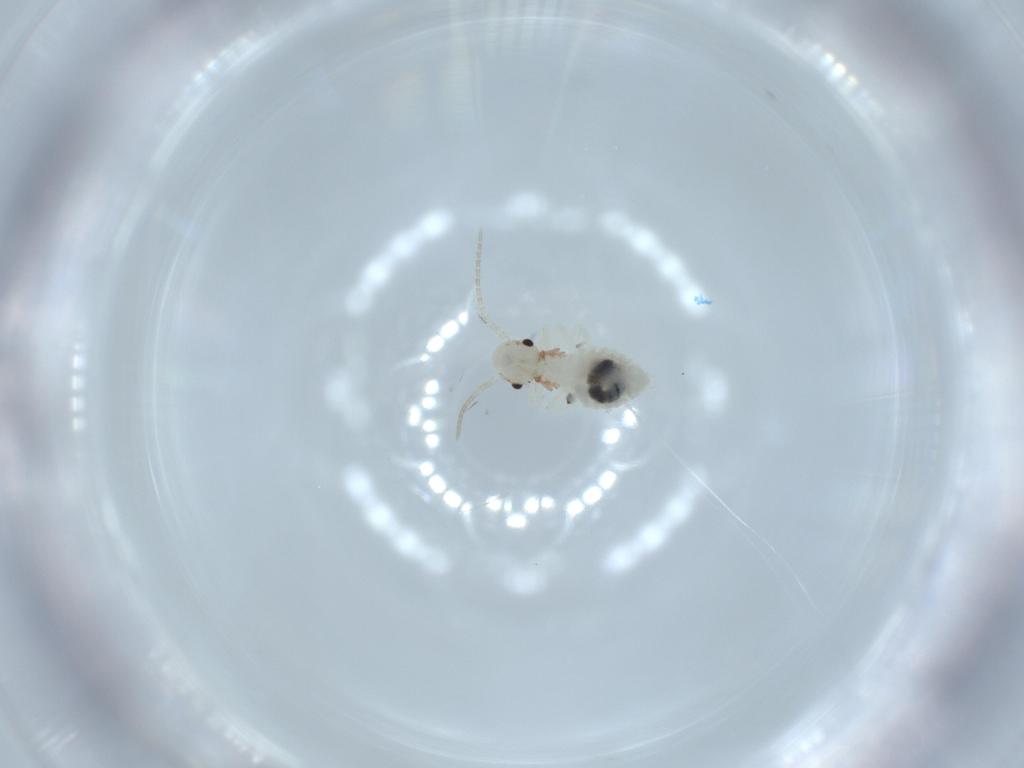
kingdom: Animalia
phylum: Arthropoda
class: Insecta
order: Psocodea
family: Amphipsocidae
